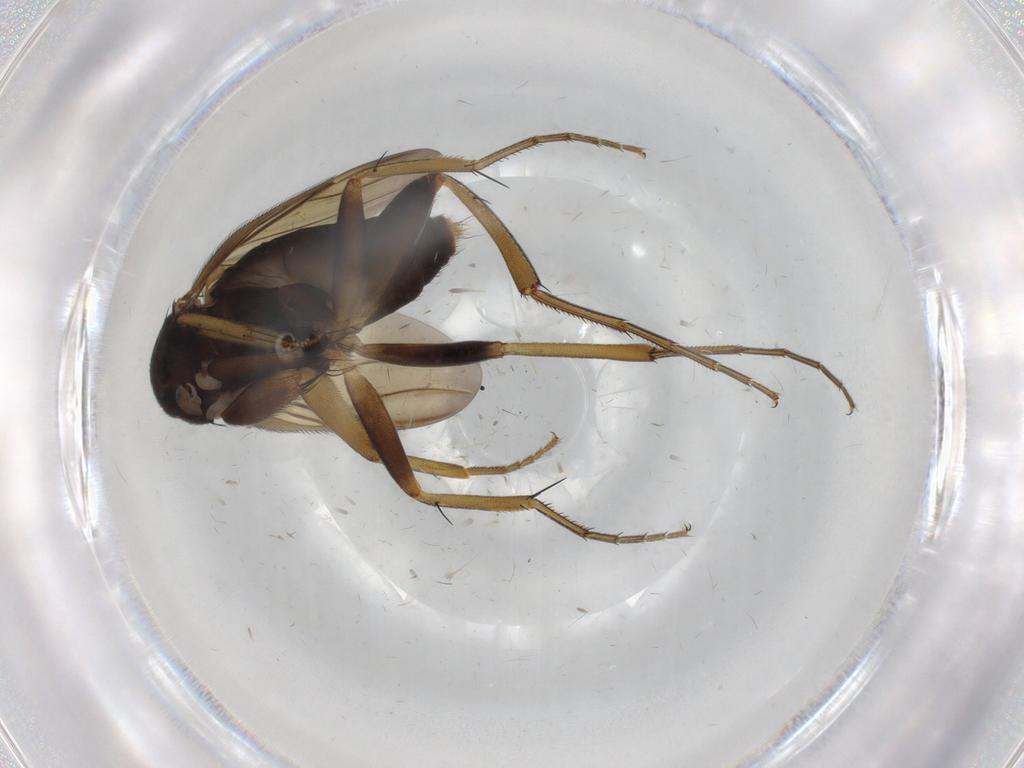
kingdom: Animalia
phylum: Arthropoda
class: Insecta
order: Diptera
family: Phoridae
